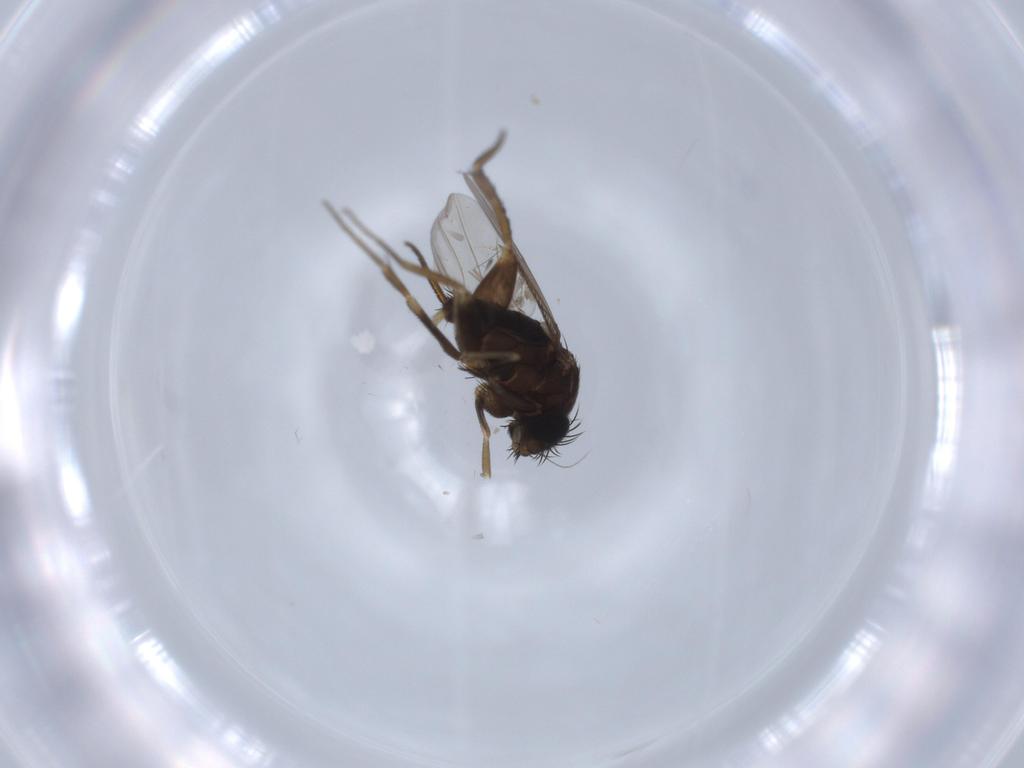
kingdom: Animalia
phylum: Arthropoda
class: Insecta
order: Diptera
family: Phoridae
